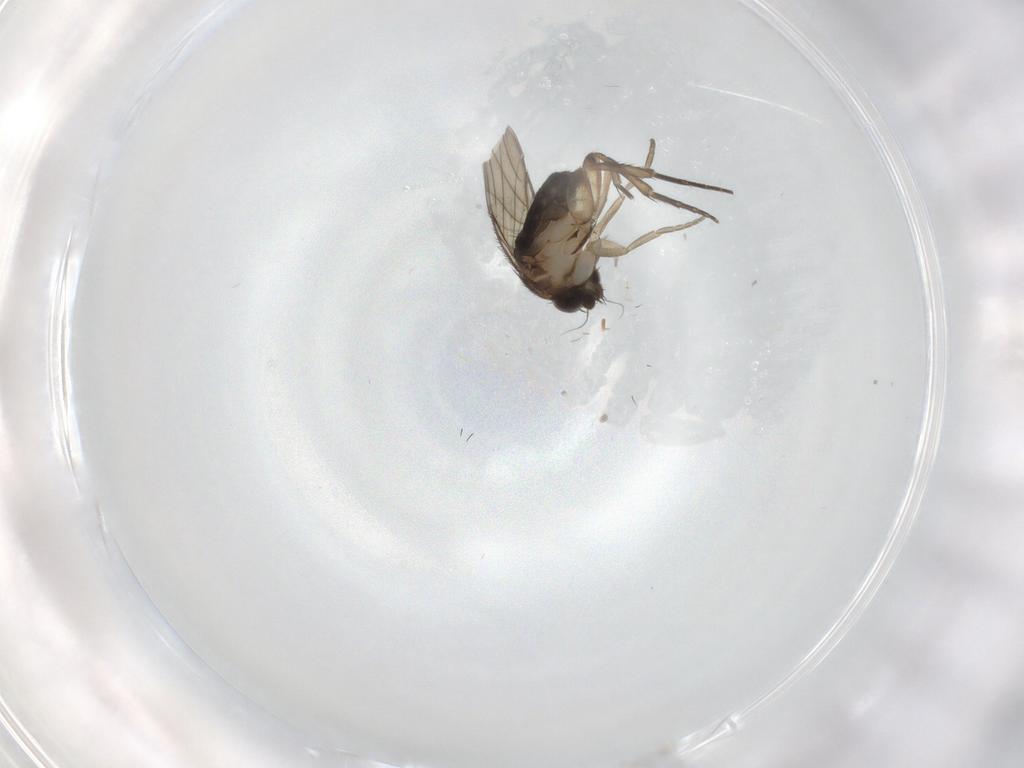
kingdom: Animalia
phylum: Arthropoda
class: Insecta
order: Diptera
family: Phoridae
